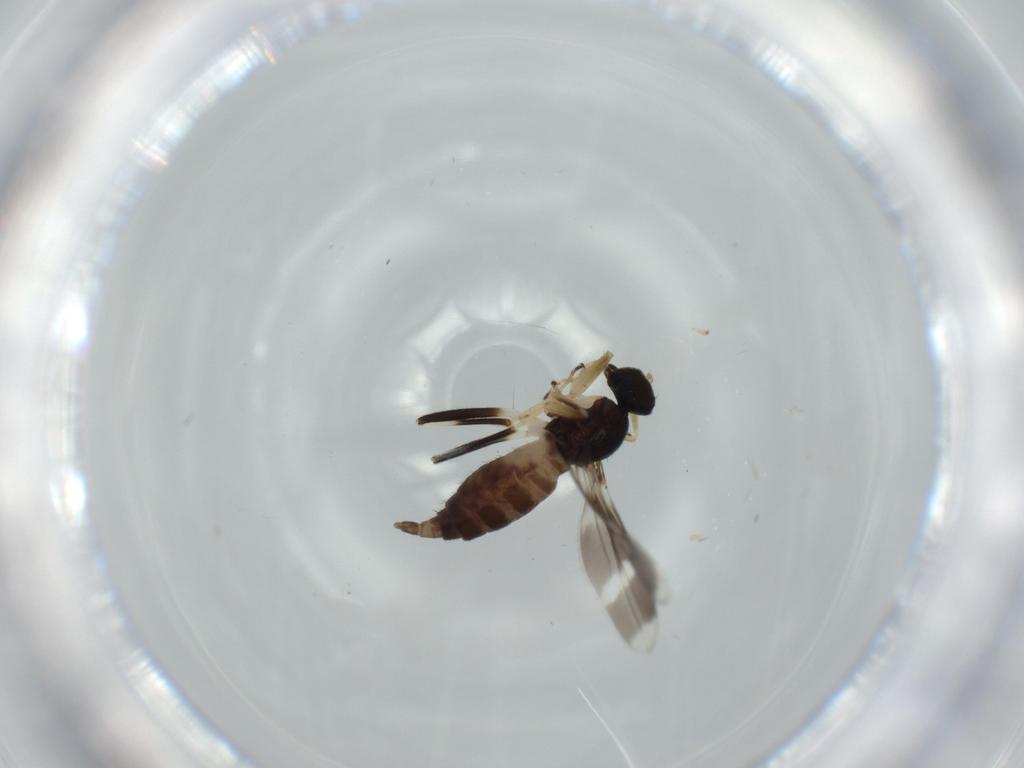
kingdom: Animalia
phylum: Arthropoda
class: Insecta
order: Diptera
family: Hybotidae
